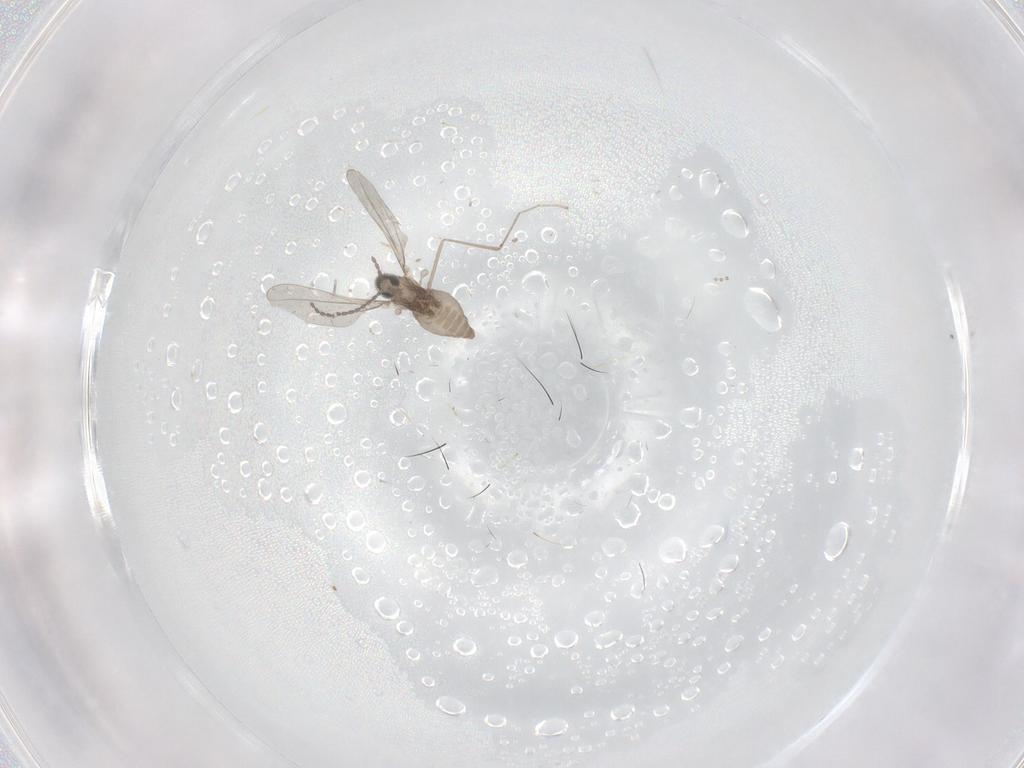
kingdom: Animalia
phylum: Arthropoda
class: Insecta
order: Diptera
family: Psychodidae
